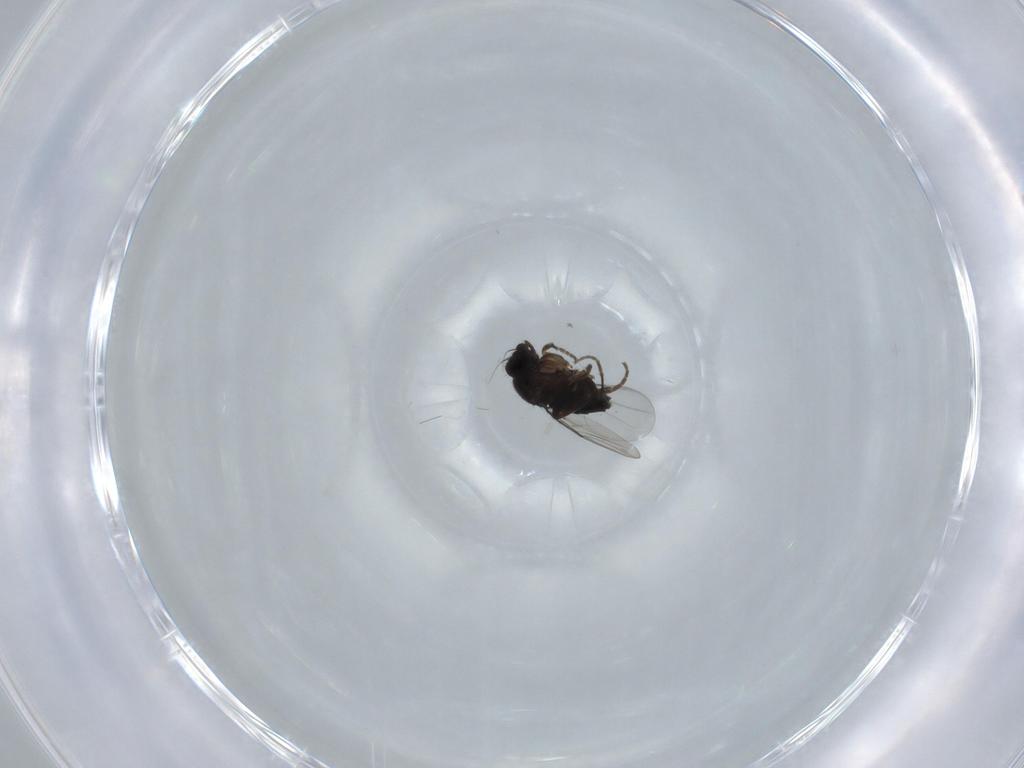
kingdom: Animalia
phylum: Arthropoda
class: Insecta
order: Diptera
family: Phoridae
